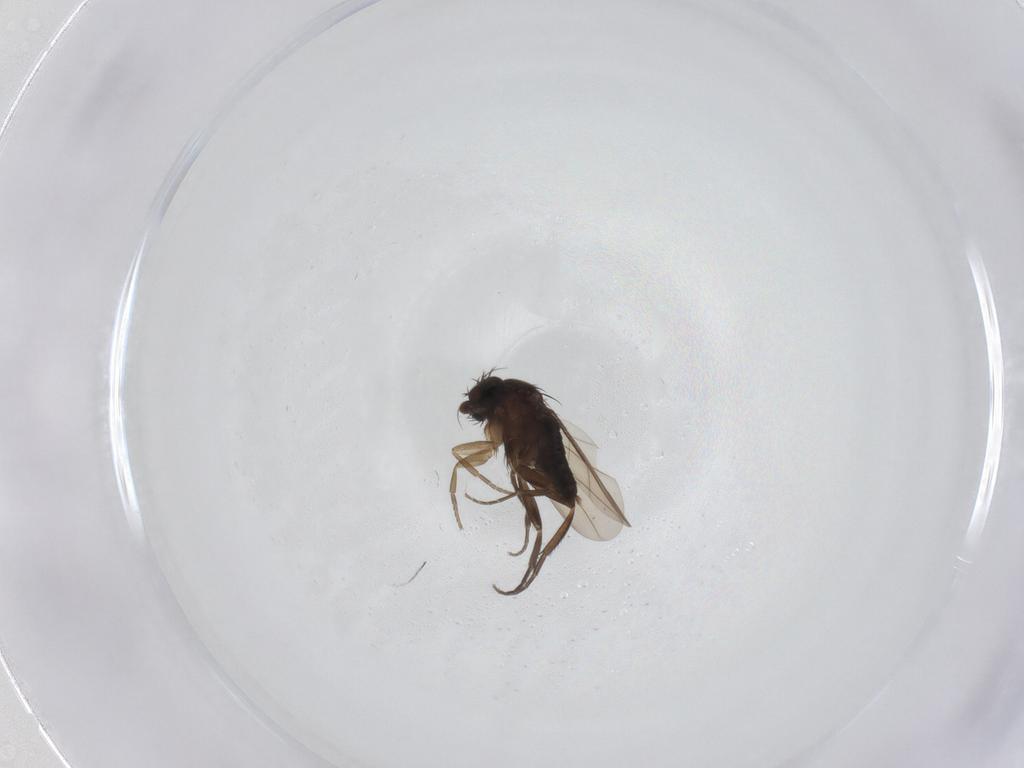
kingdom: Animalia
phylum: Arthropoda
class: Insecta
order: Diptera
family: Phoridae
